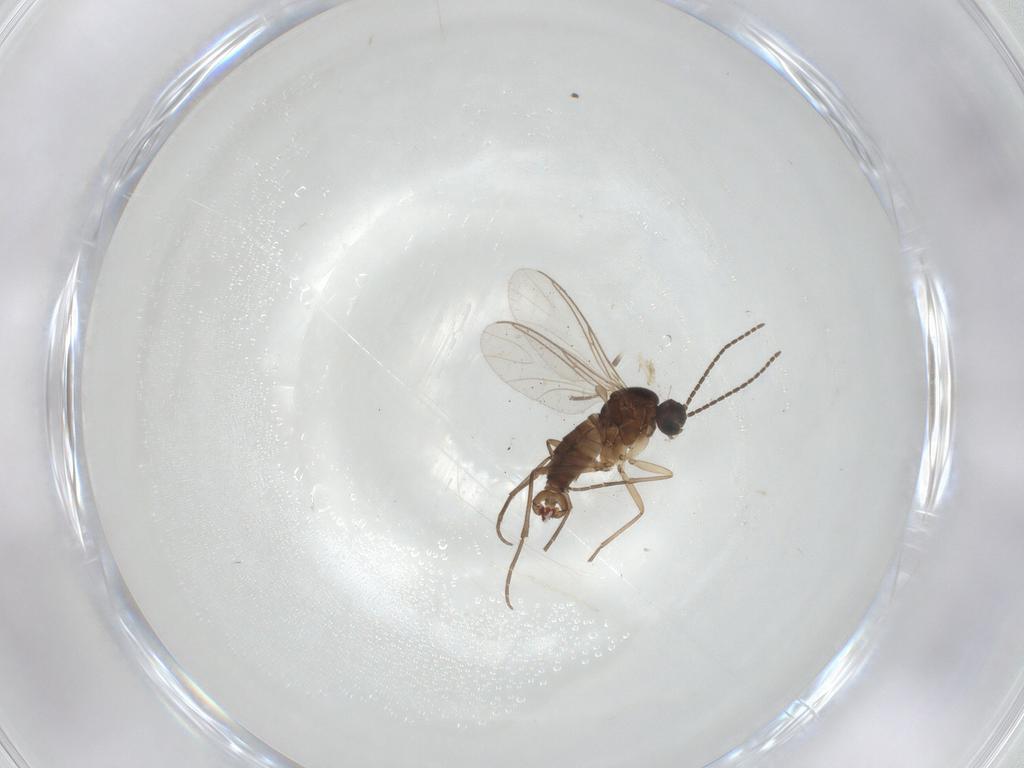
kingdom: Animalia
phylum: Arthropoda
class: Insecta
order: Diptera
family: Sciaridae
